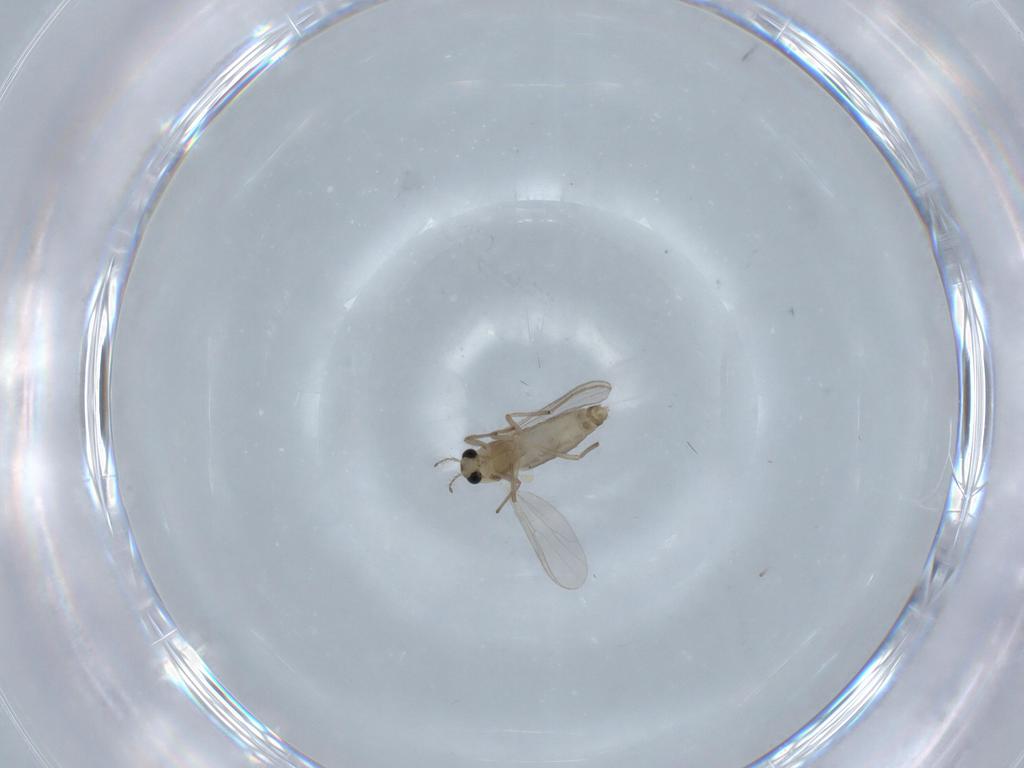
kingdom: Animalia
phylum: Arthropoda
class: Insecta
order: Diptera
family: Chironomidae
